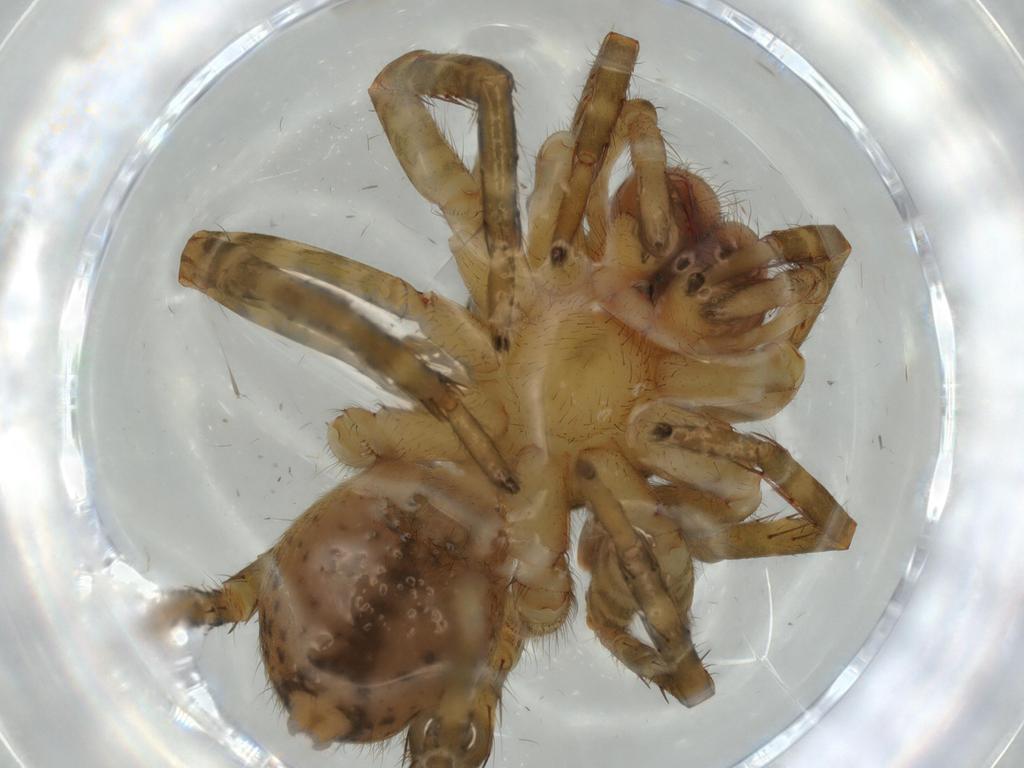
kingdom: Animalia
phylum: Arthropoda
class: Arachnida
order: Araneae
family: Ctenidae
